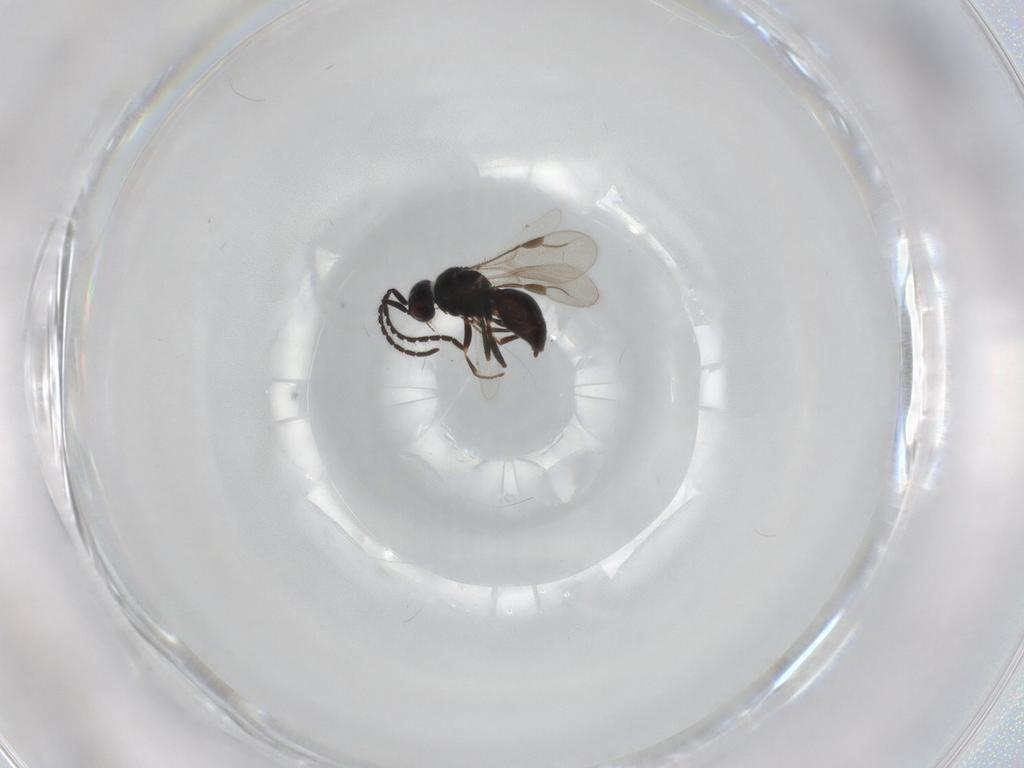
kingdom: Animalia
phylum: Arthropoda
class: Insecta
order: Hymenoptera
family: Megaspilidae
